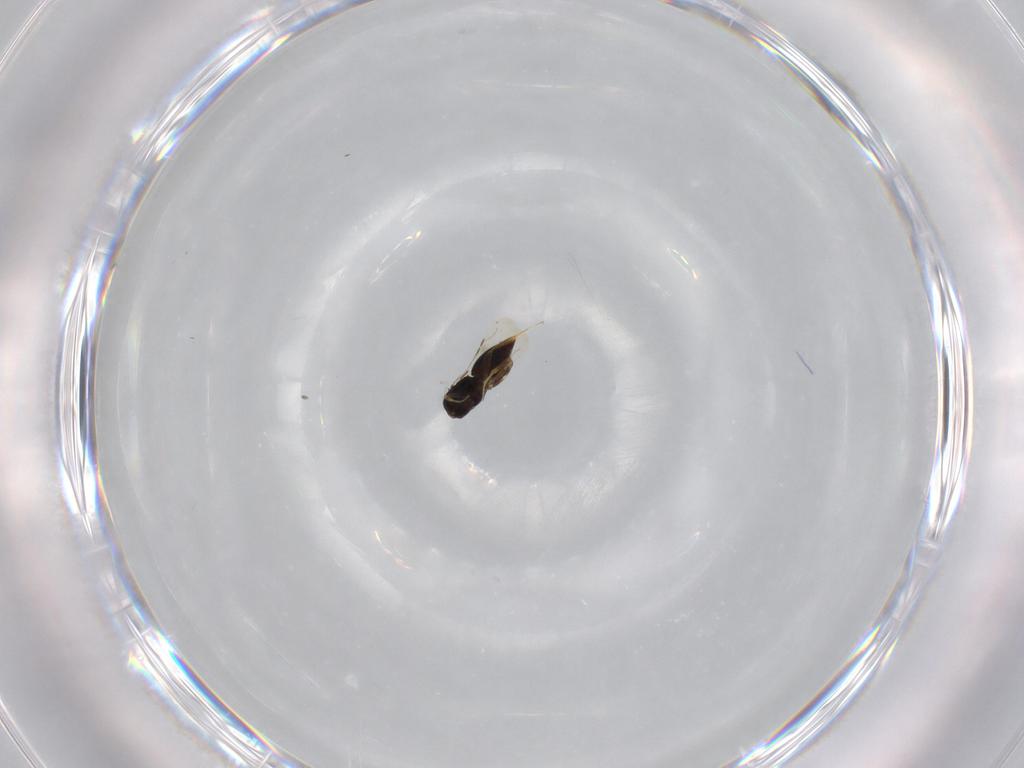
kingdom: Animalia
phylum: Arthropoda
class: Insecta
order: Hymenoptera
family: Ceraphronidae
